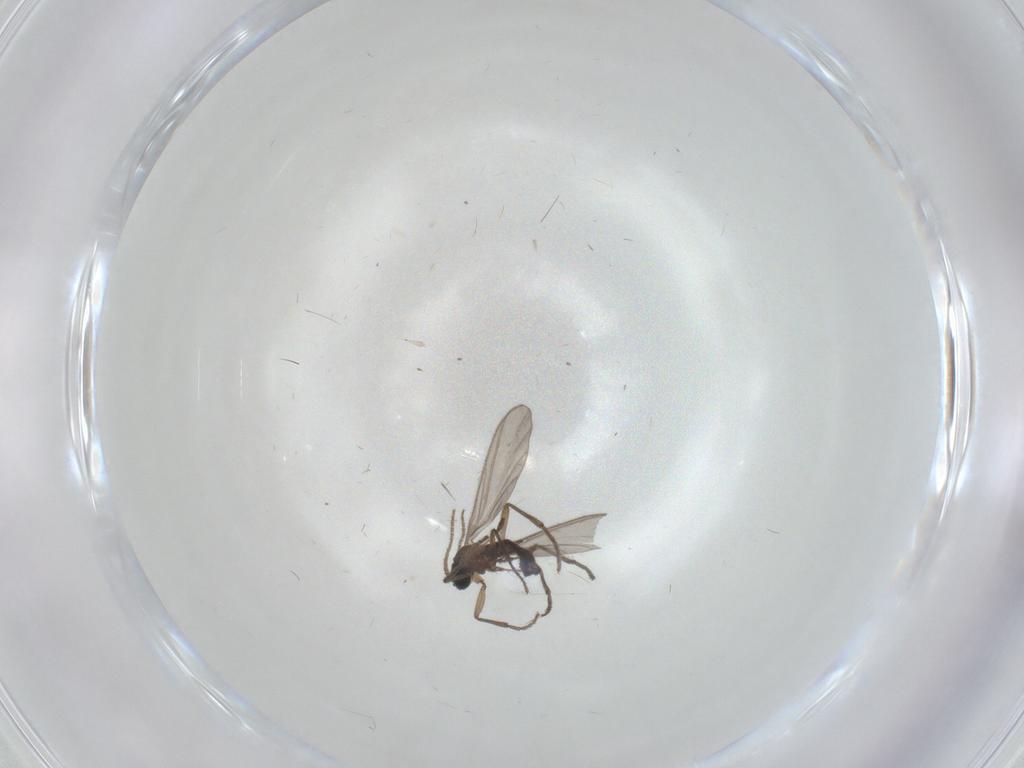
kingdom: Animalia
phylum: Arthropoda
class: Insecta
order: Diptera
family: Sciaridae
